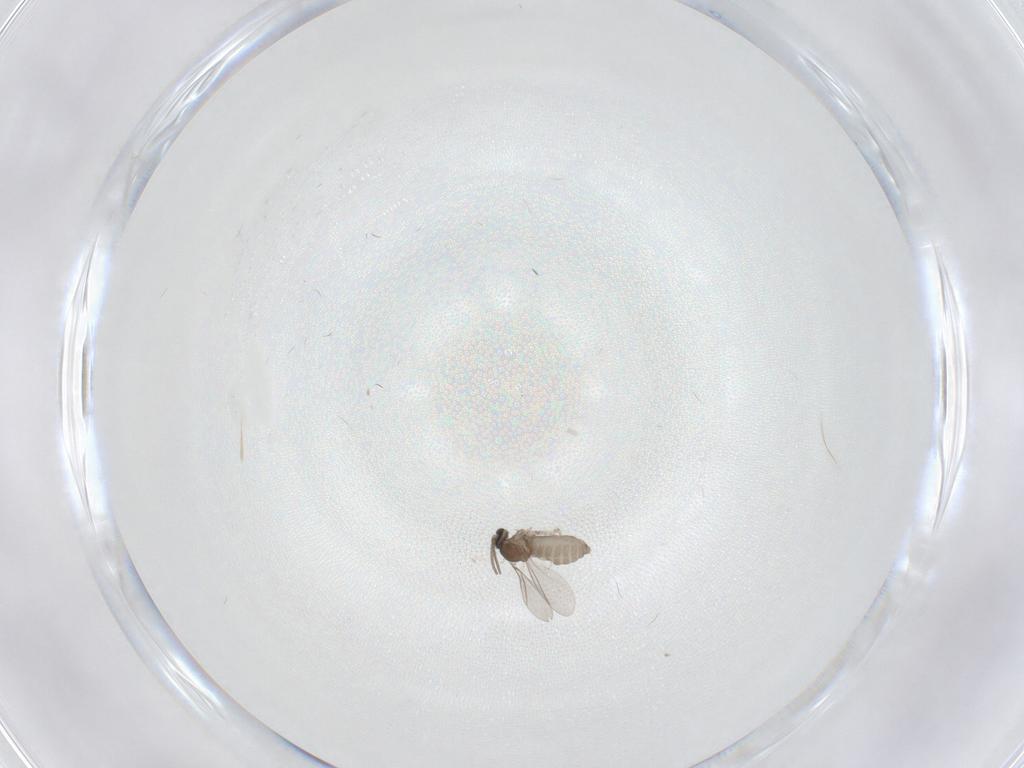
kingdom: Animalia
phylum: Arthropoda
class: Insecta
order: Diptera
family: Cecidomyiidae
